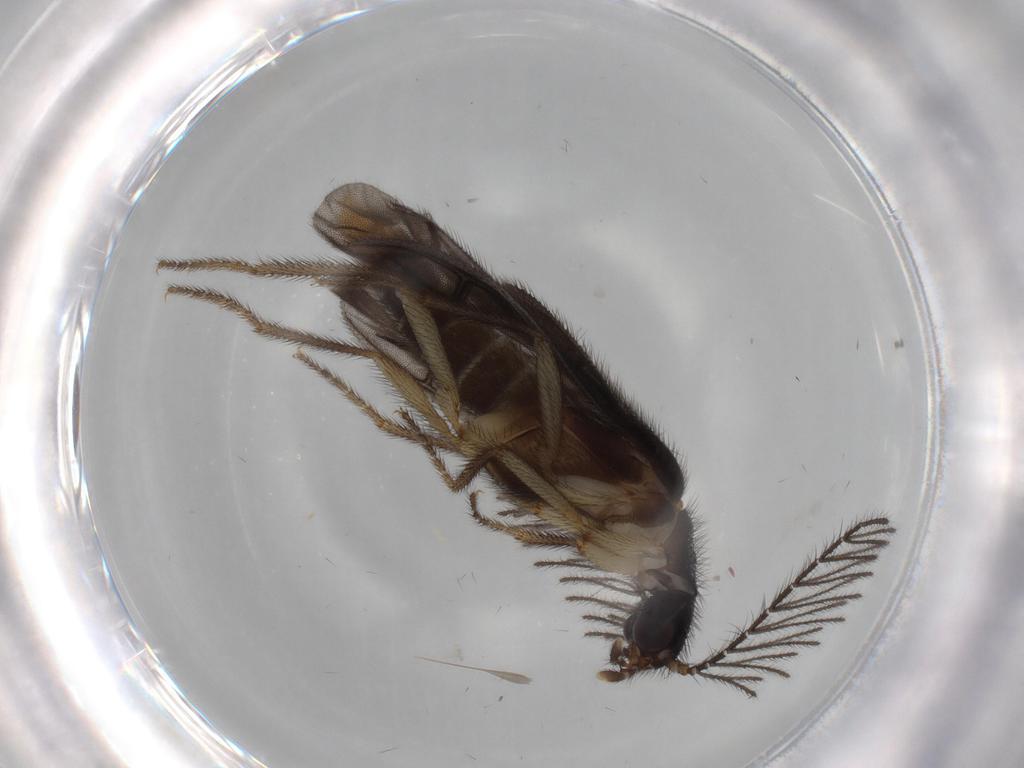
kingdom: Animalia
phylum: Arthropoda
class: Insecta
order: Coleoptera
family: Phengodidae
